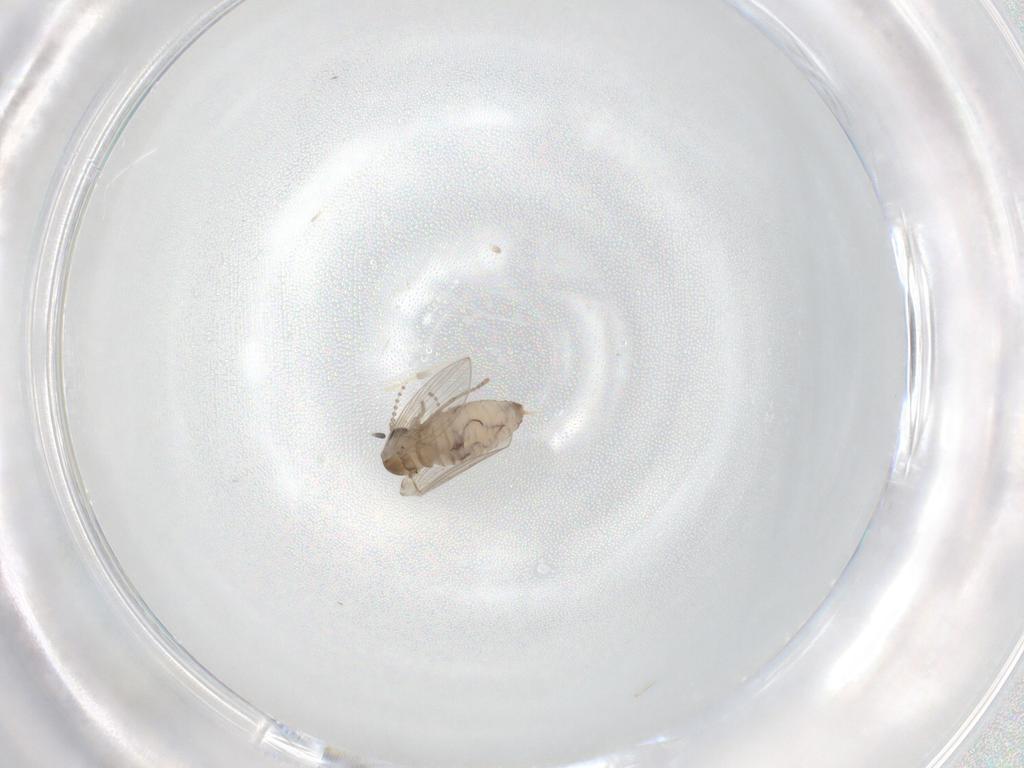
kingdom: Animalia
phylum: Arthropoda
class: Insecta
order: Diptera
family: Psychodidae
